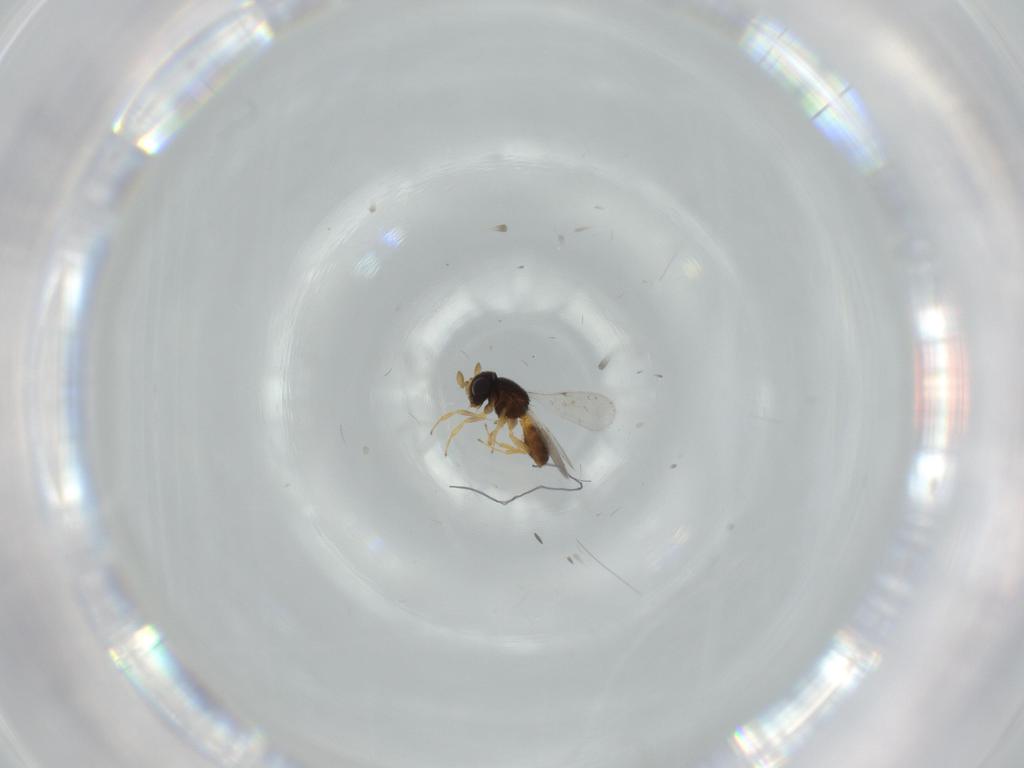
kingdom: Animalia
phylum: Arthropoda
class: Insecta
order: Hymenoptera
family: Scelionidae
